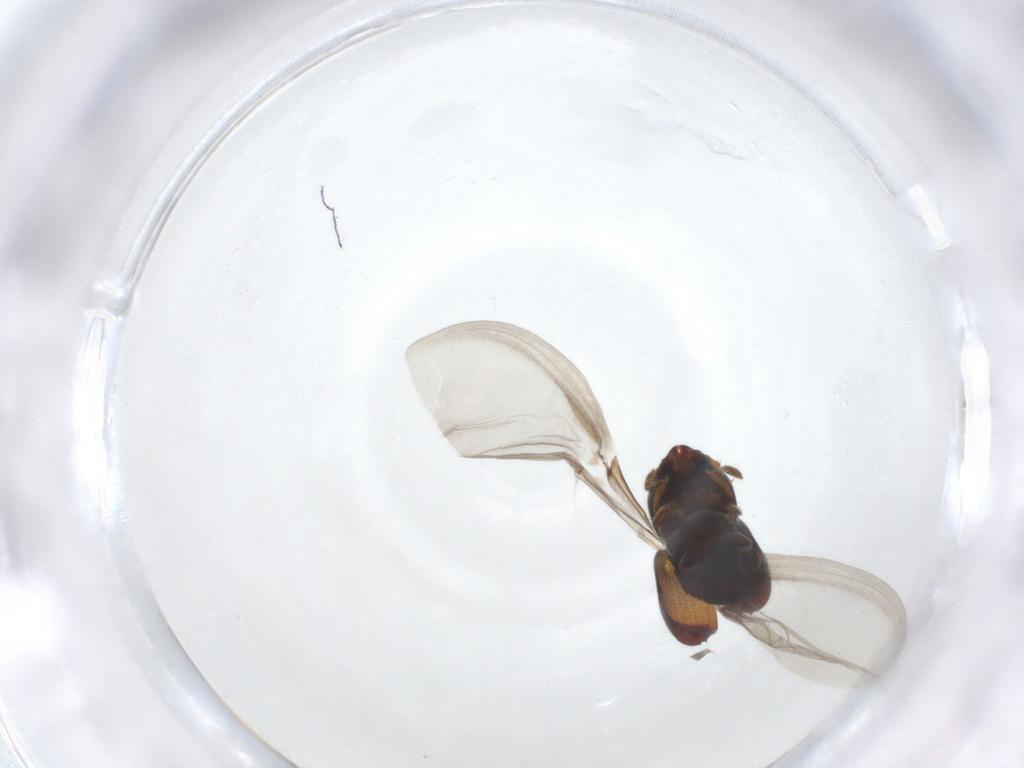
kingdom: Animalia
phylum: Arthropoda
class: Insecta
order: Coleoptera
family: Curculionidae
